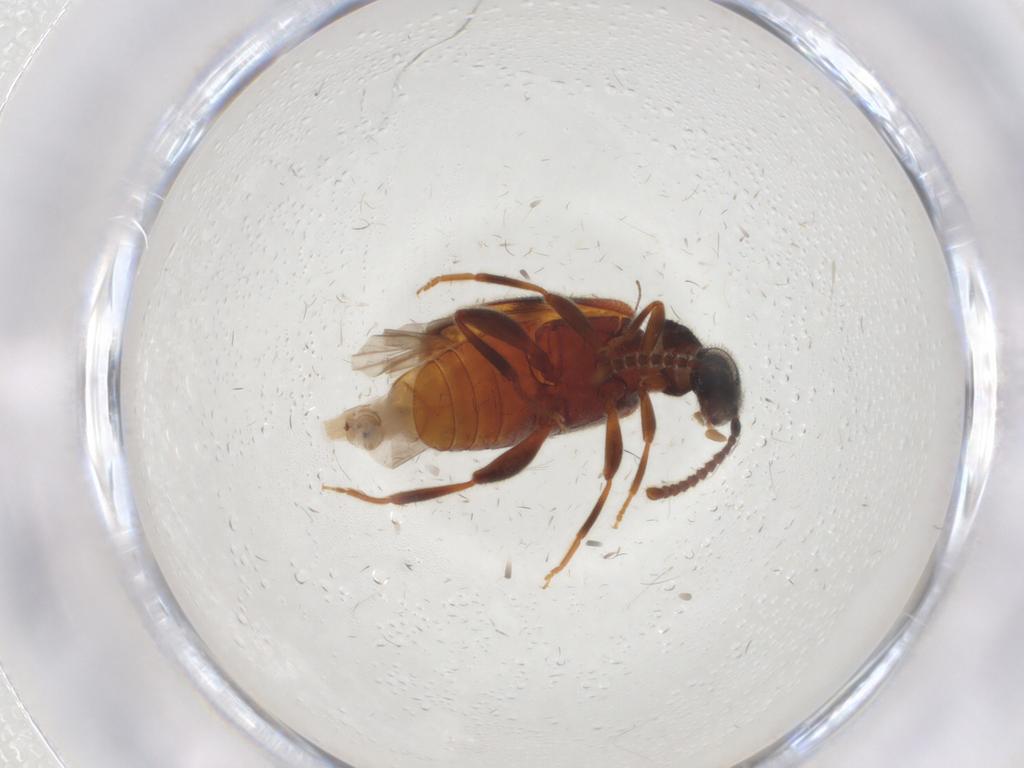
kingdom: Animalia
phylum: Arthropoda
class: Insecta
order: Coleoptera
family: Aderidae
